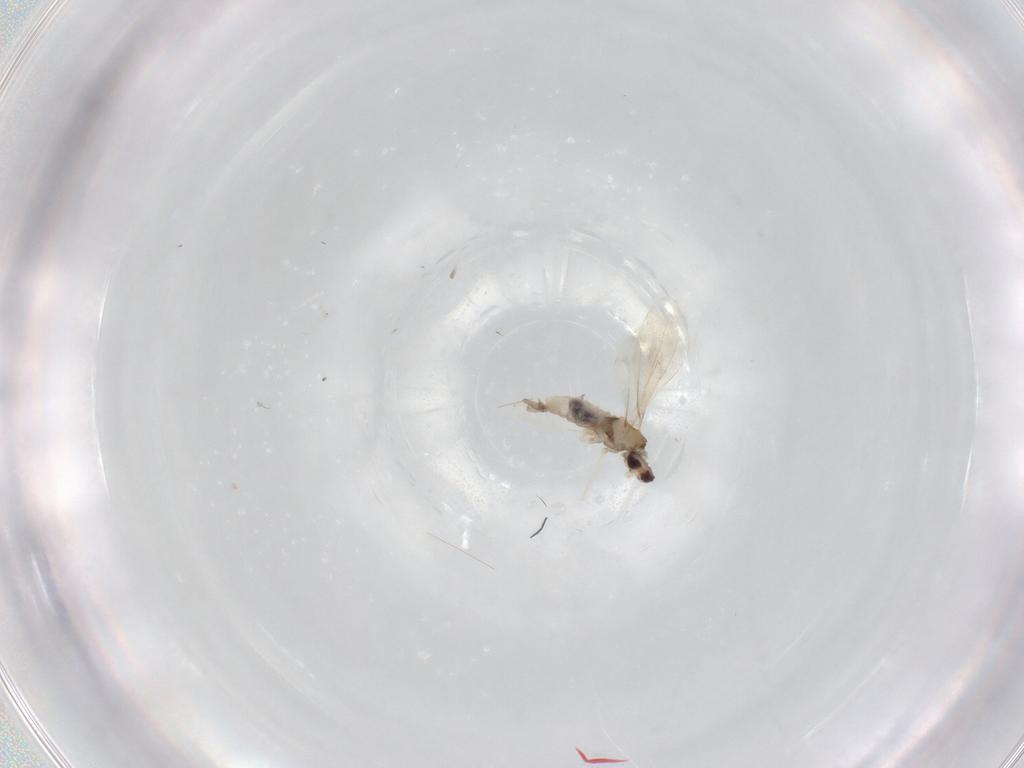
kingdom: Animalia
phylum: Arthropoda
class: Insecta
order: Diptera
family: Cecidomyiidae
